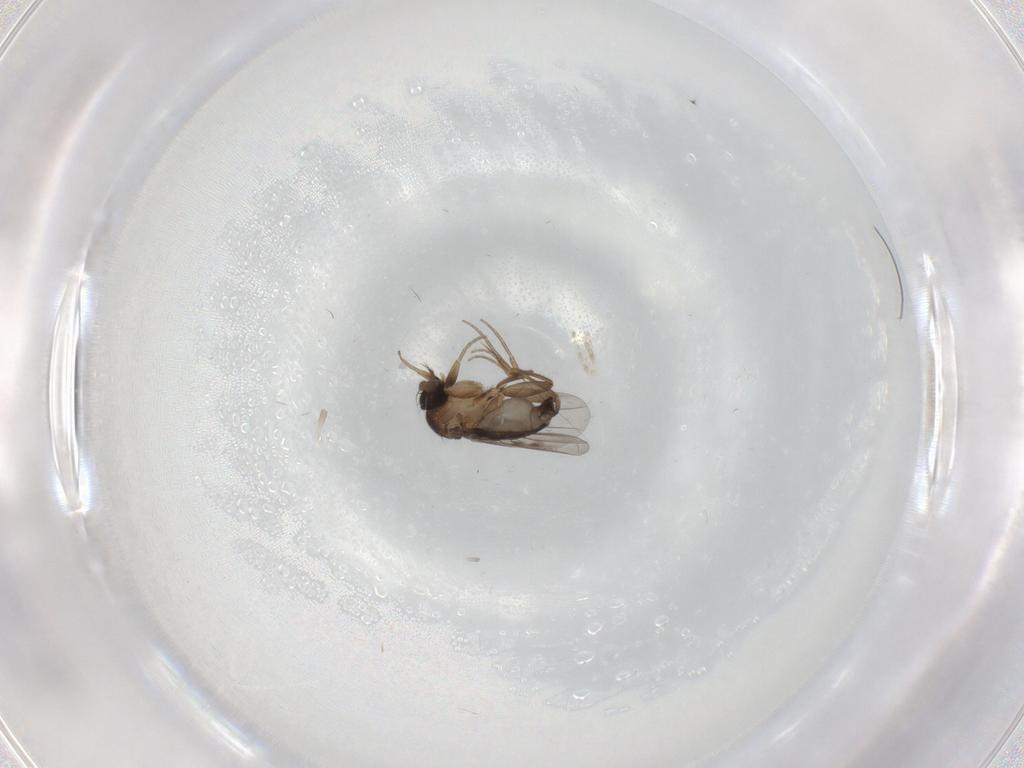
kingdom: Animalia
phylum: Arthropoda
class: Insecta
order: Diptera
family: Phoridae
